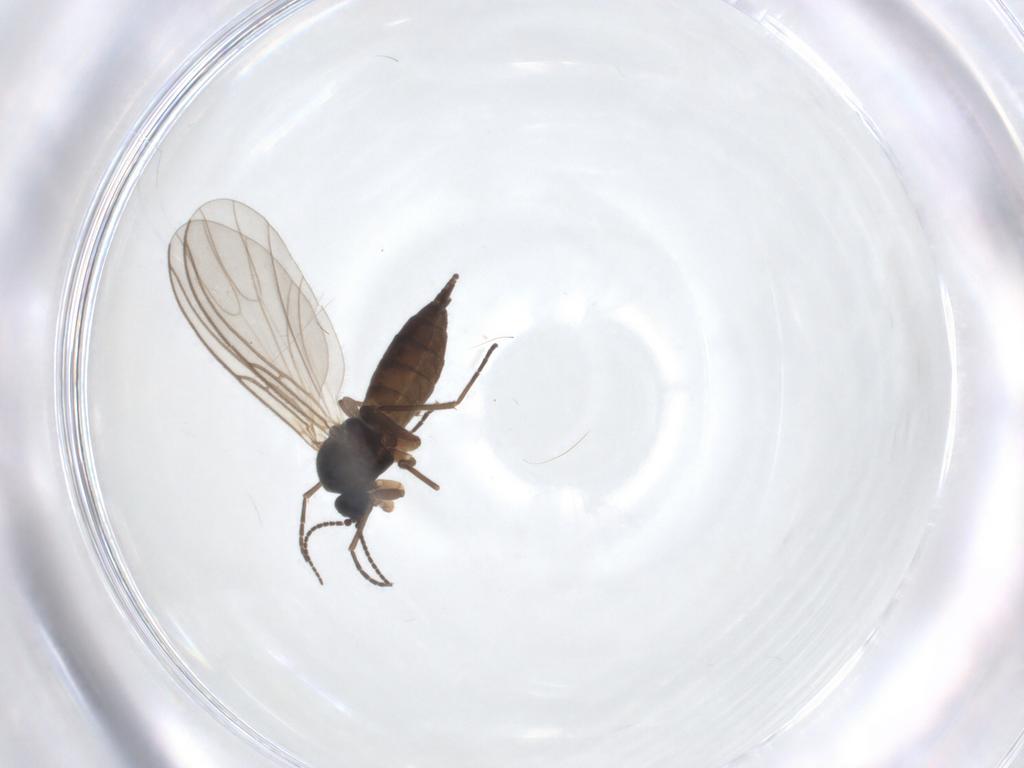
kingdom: Animalia
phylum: Arthropoda
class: Insecta
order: Diptera
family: Sciaridae
